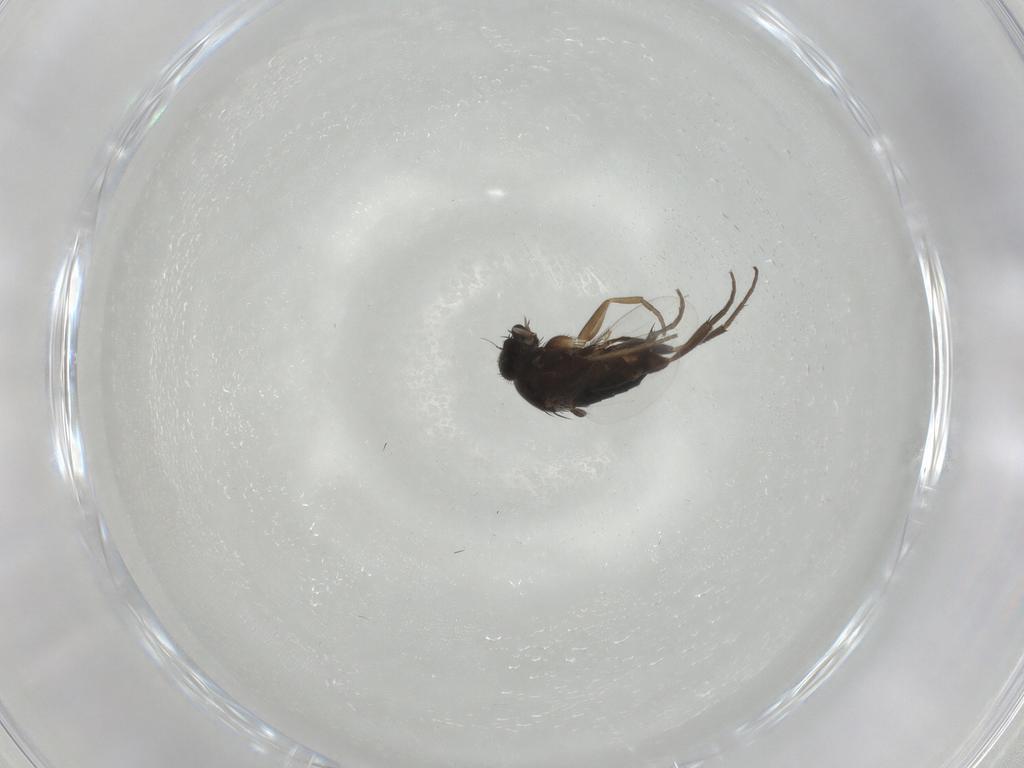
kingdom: Animalia
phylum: Arthropoda
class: Insecta
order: Diptera
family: Phoridae
